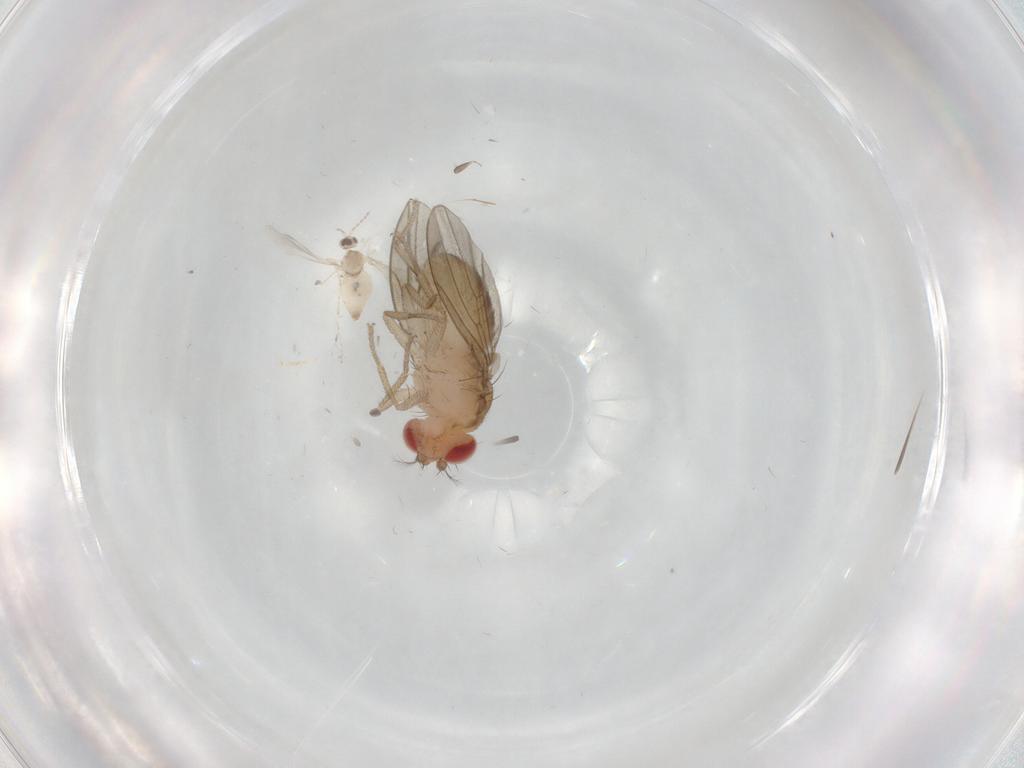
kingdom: Animalia
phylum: Arthropoda
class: Insecta
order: Diptera
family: Drosophilidae
